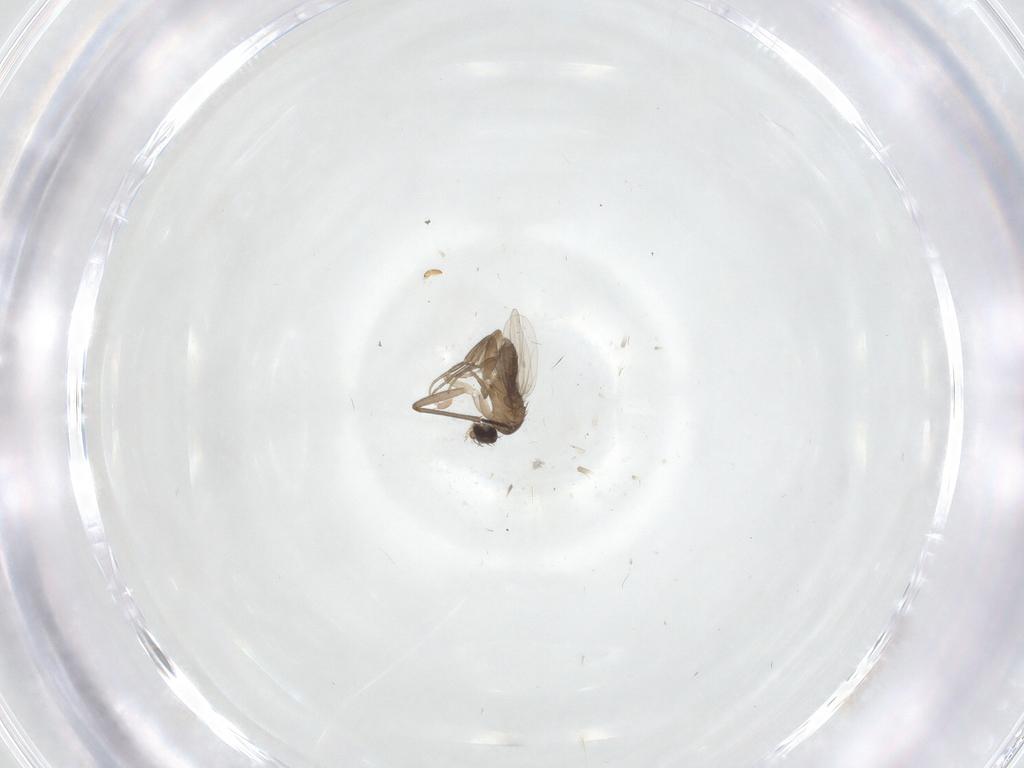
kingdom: Animalia
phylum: Arthropoda
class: Insecta
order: Diptera
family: Phoridae
